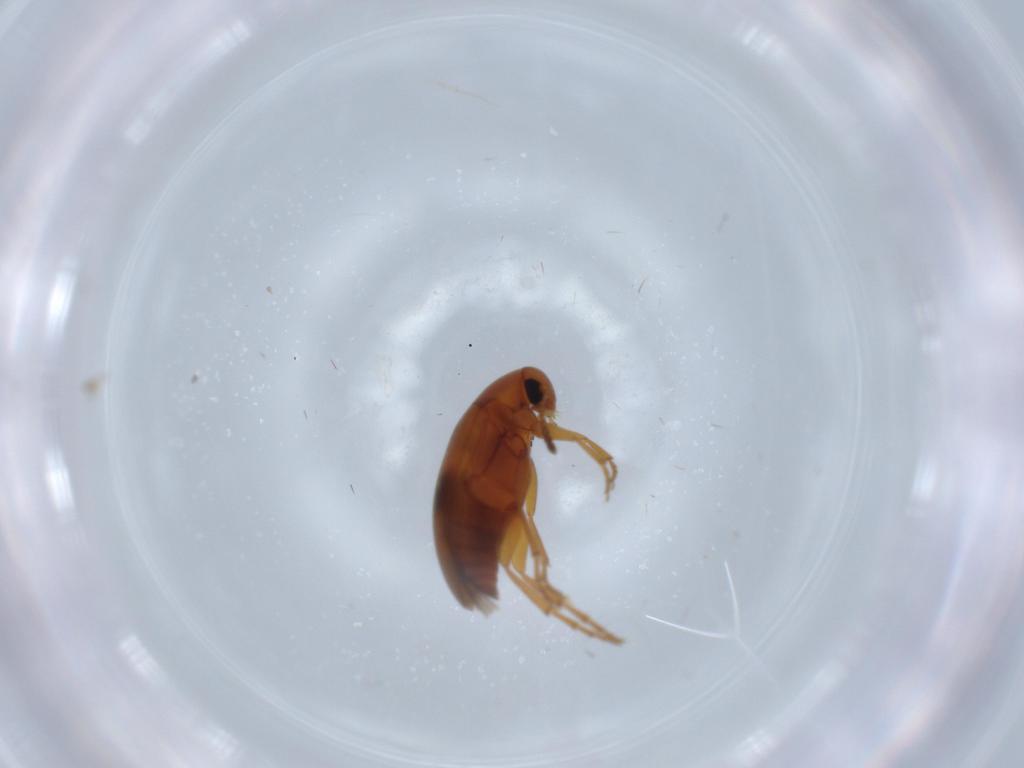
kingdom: Animalia
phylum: Arthropoda
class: Insecta
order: Coleoptera
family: Scraptiidae
